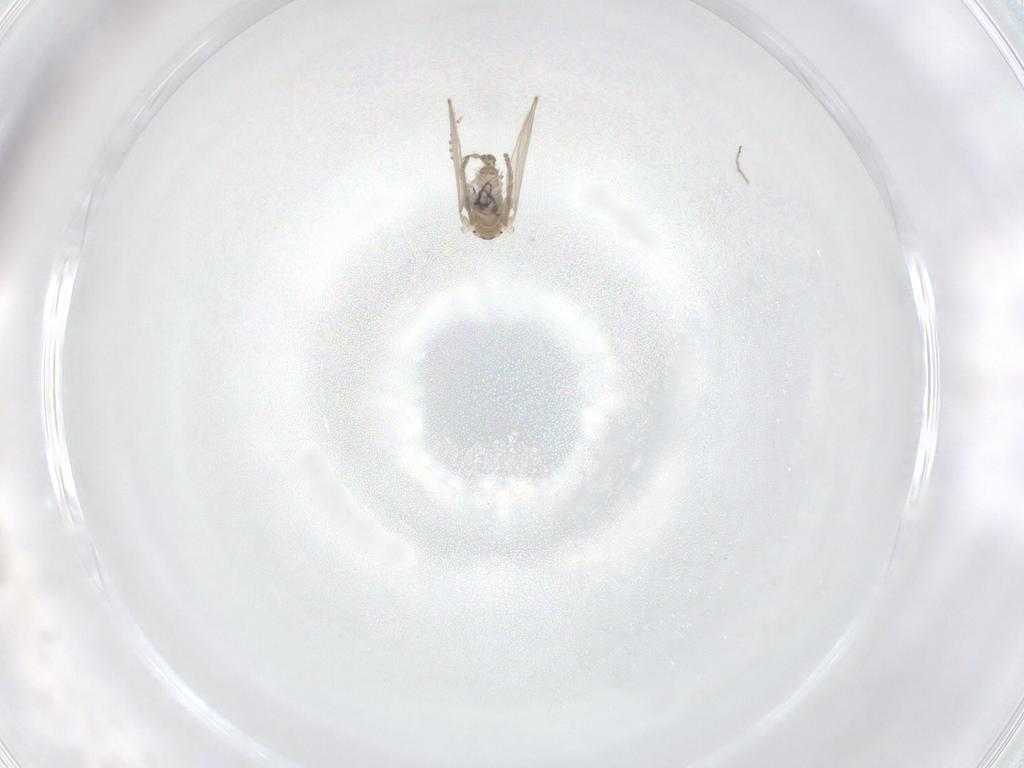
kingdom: Animalia
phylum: Arthropoda
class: Insecta
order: Diptera
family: Ceratopogonidae
